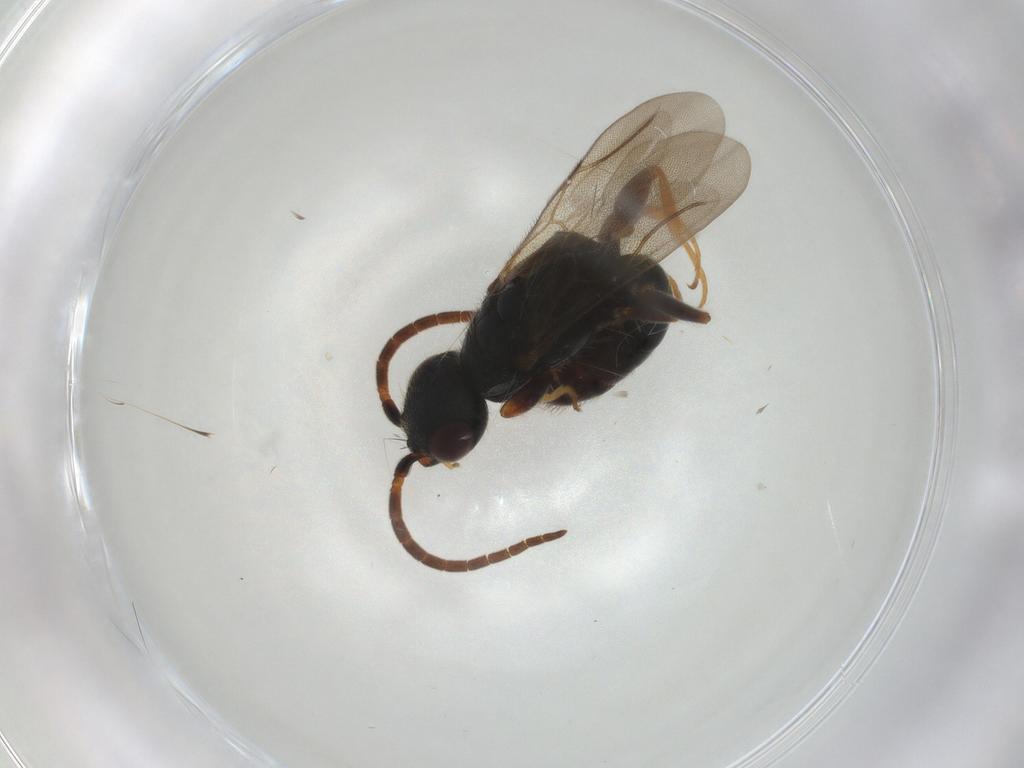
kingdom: Animalia
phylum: Arthropoda
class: Insecta
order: Hymenoptera
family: Bethylidae
